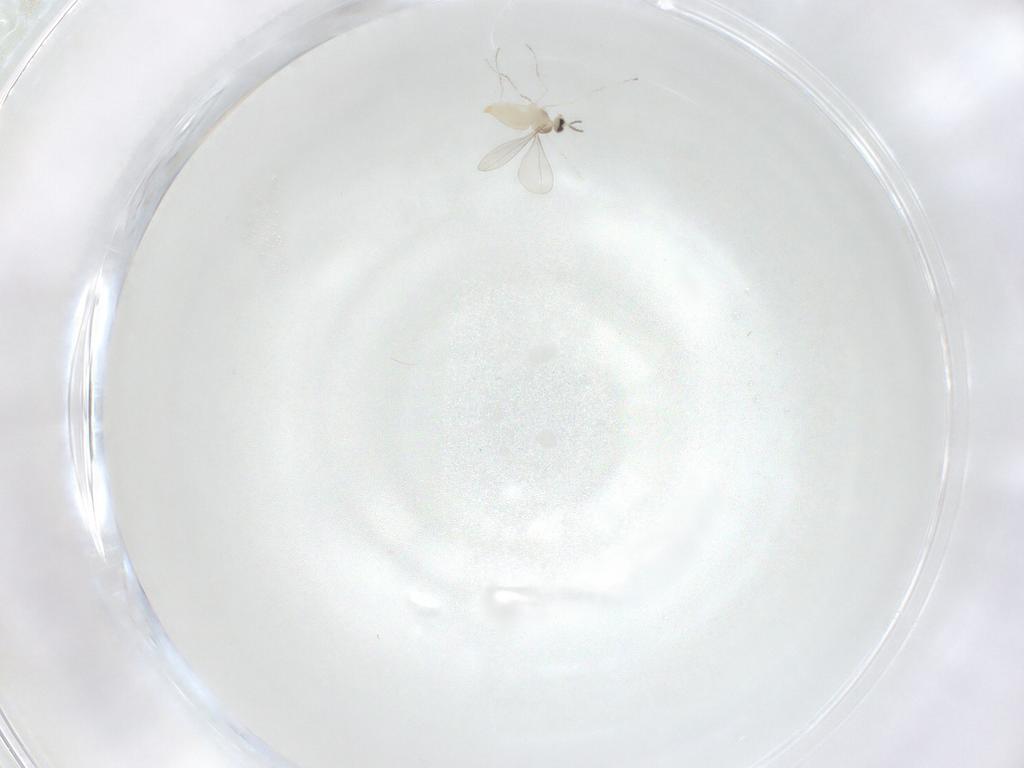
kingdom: Animalia
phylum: Arthropoda
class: Insecta
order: Diptera
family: Cecidomyiidae
